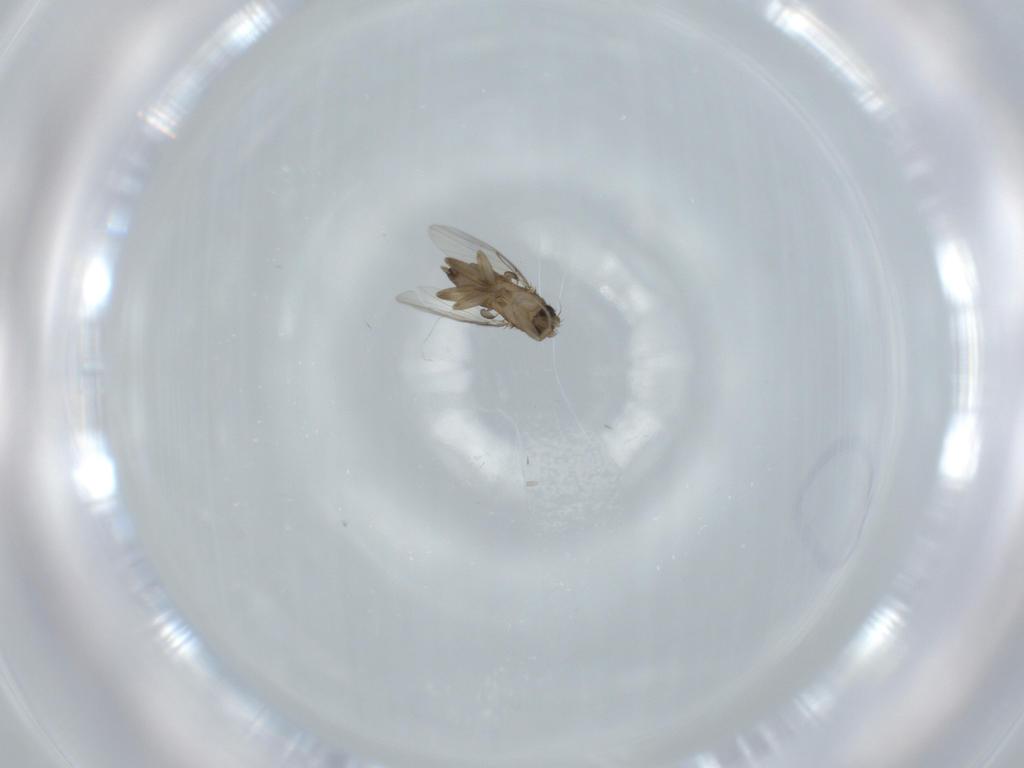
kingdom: Animalia
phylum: Arthropoda
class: Insecta
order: Diptera
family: Phoridae
